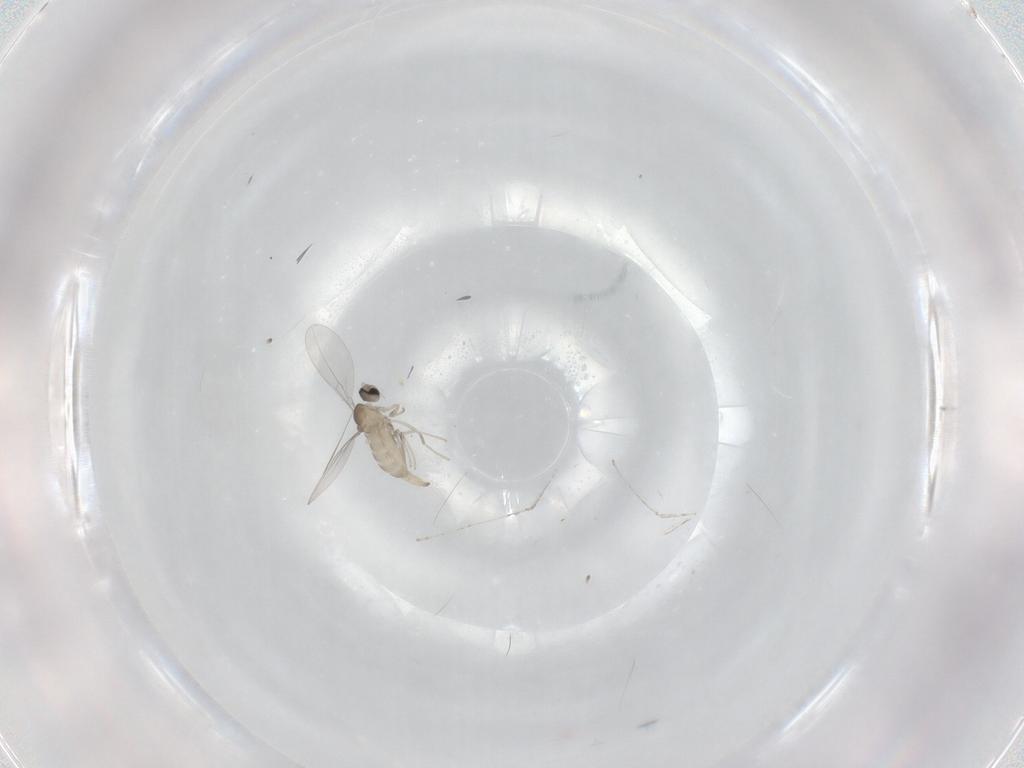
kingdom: Animalia
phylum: Arthropoda
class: Insecta
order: Diptera
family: Cecidomyiidae
